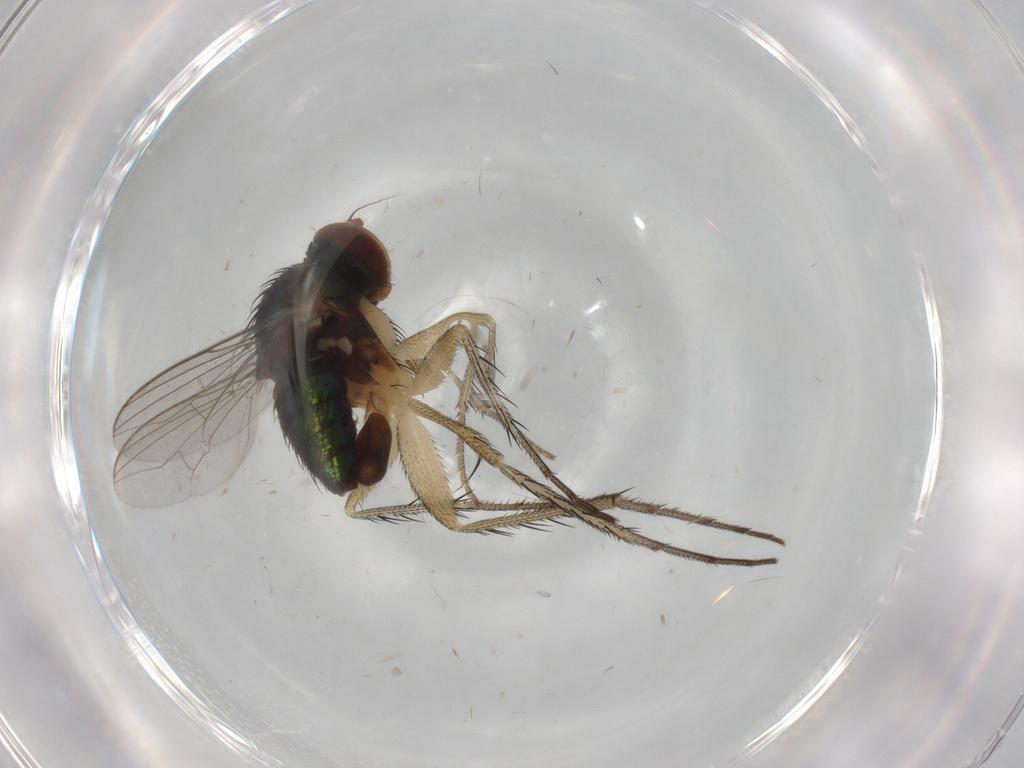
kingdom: Animalia
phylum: Arthropoda
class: Insecta
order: Diptera
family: Dolichopodidae
